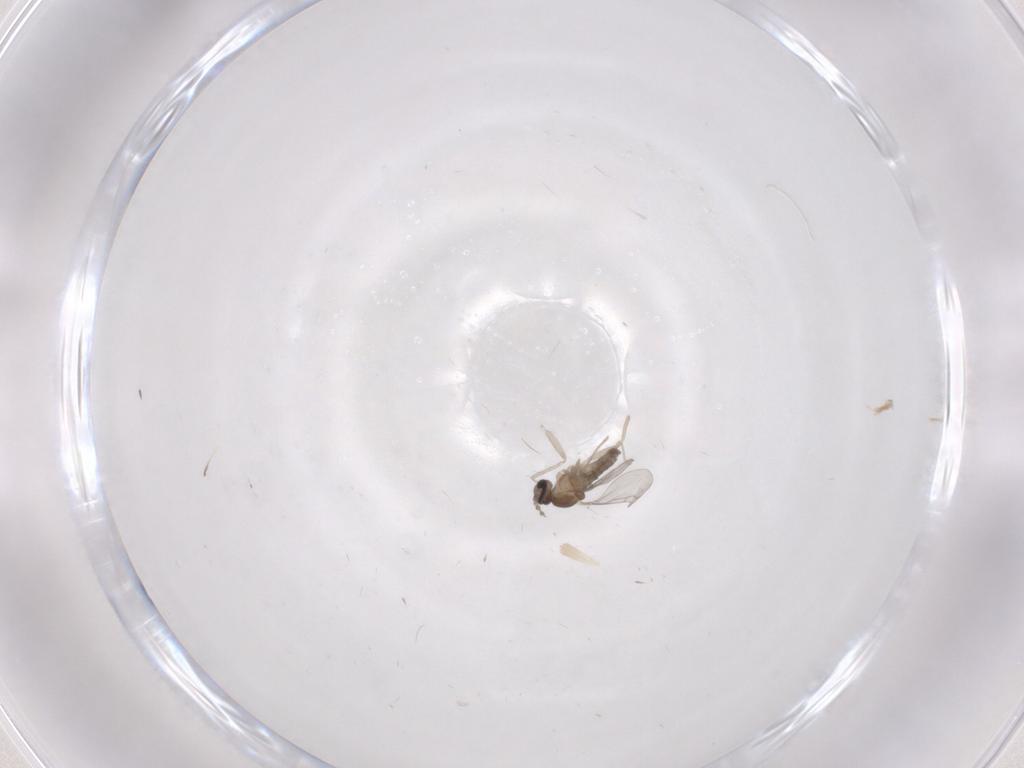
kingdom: Animalia
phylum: Arthropoda
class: Insecta
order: Diptera
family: Cecidomyiidae
